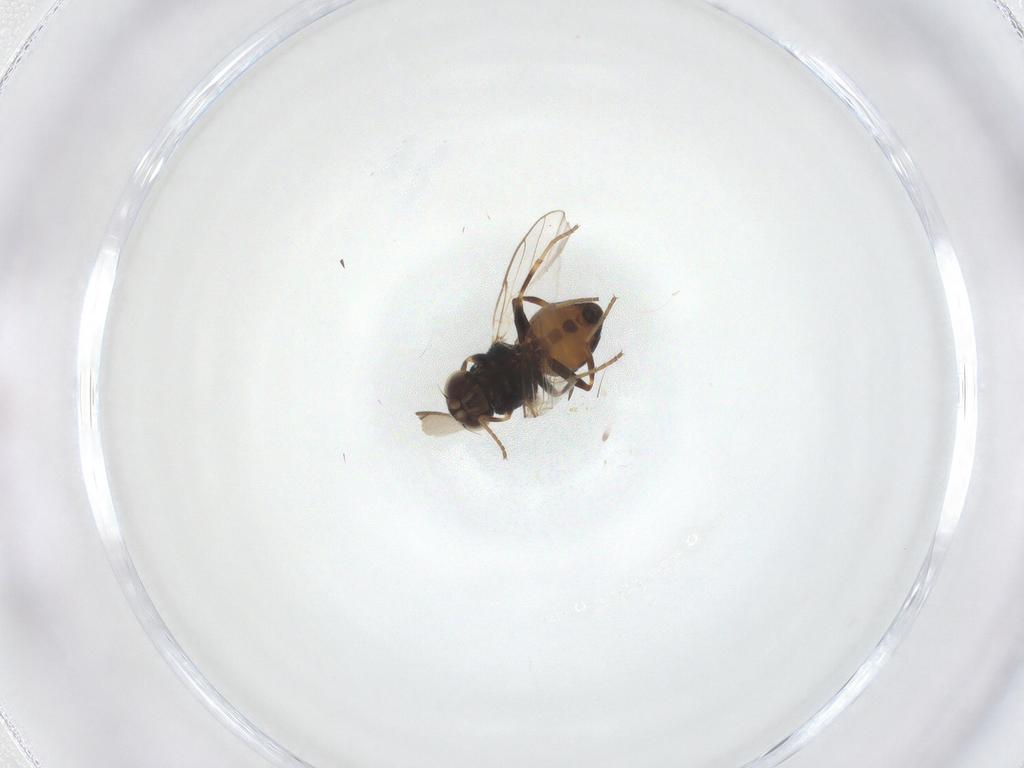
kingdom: Animalia
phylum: Arthropoda
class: Insecta
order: Diptera
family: Chloropidae
